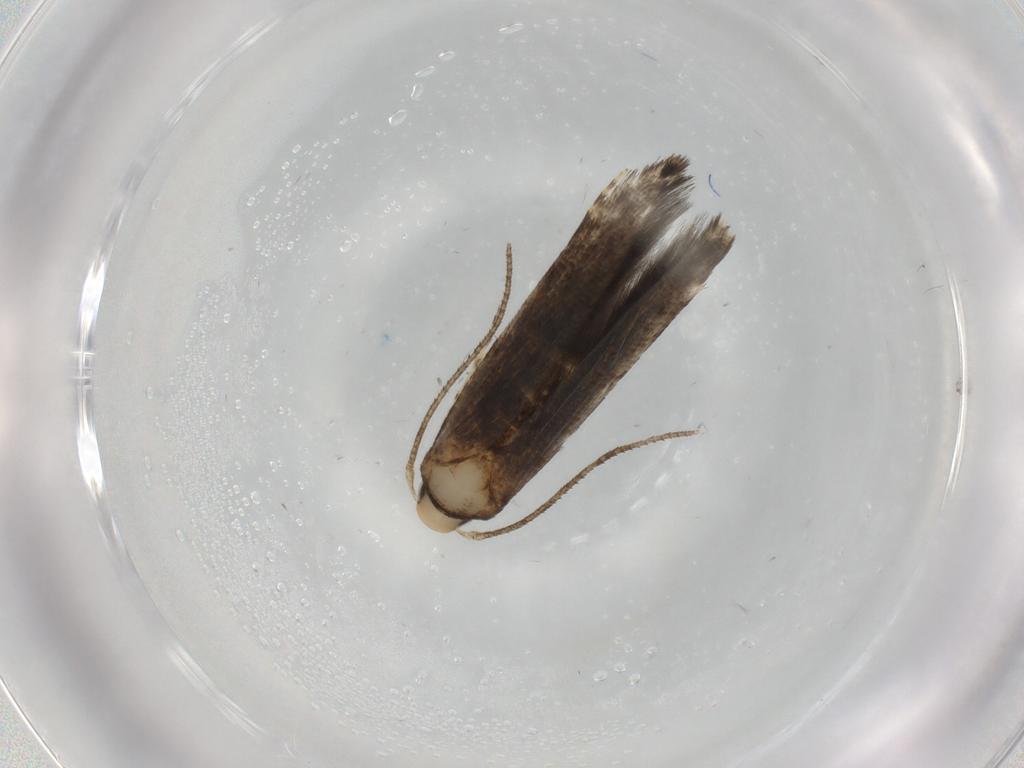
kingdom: Animalia
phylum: Arthropoda
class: Insecta
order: Lepidoptera
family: Cosmopterigidae
